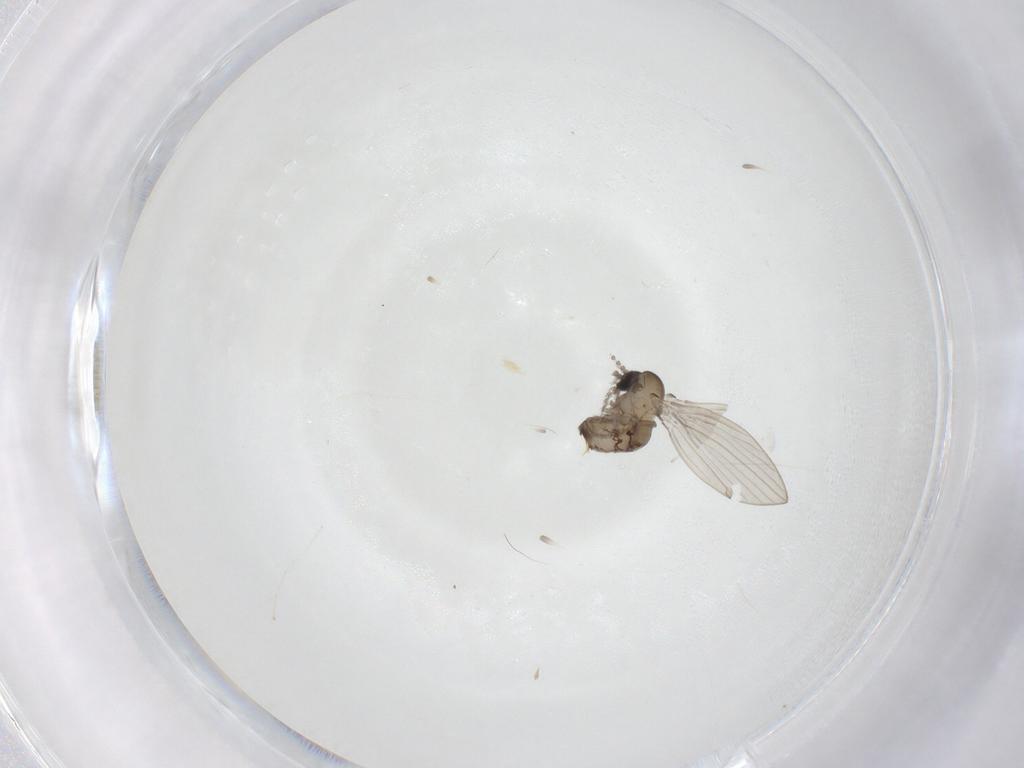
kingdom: Animalia
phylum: Arthropoda
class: Insecta
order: Diptera
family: Psychodidae
